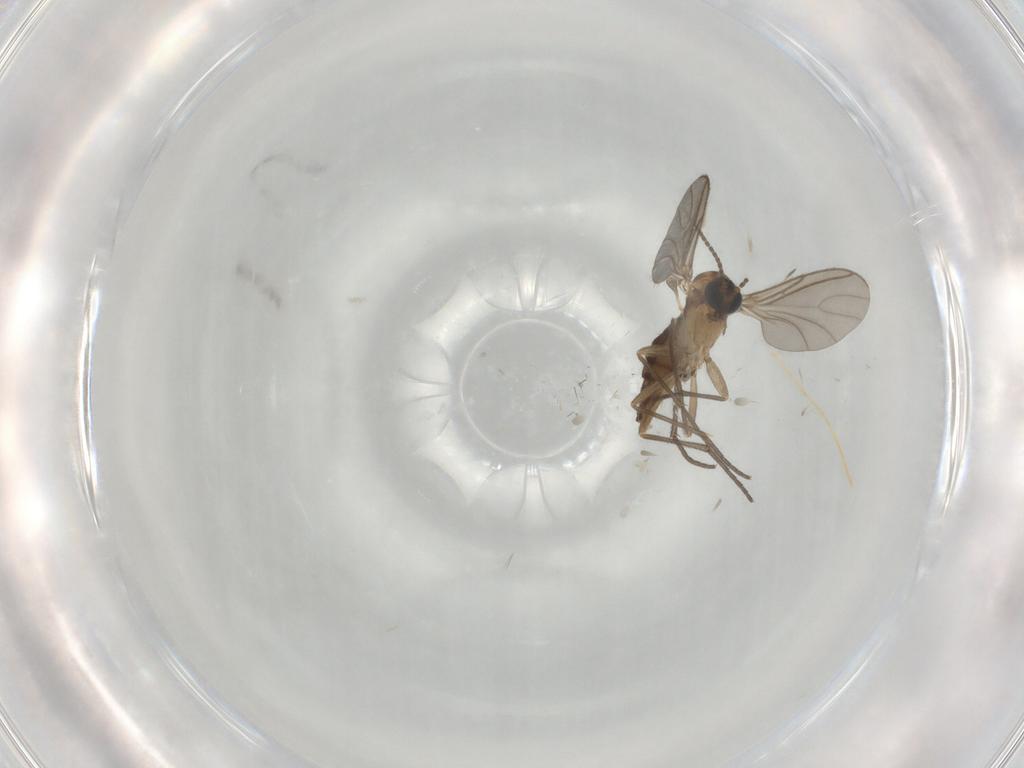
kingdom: Animalia
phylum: Arthropoda
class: Insecta
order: Diptera
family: Sciaridae
